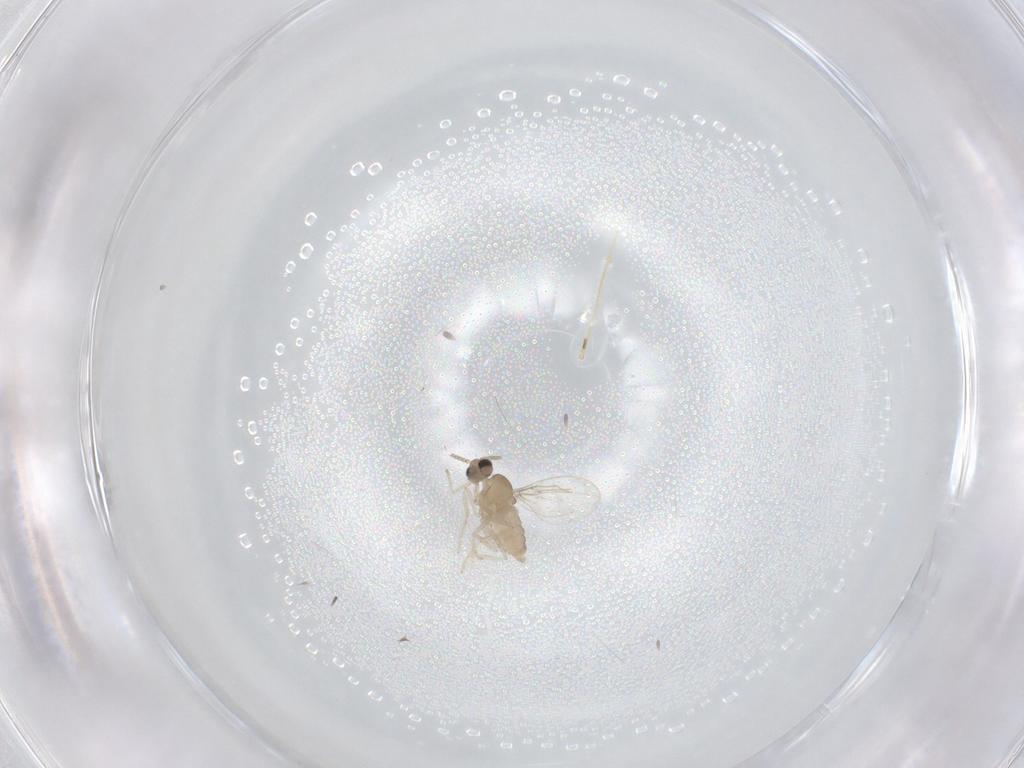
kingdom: Animalia
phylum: Arthropoda
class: Insecta
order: Diptera
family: Cecidomyiidae
